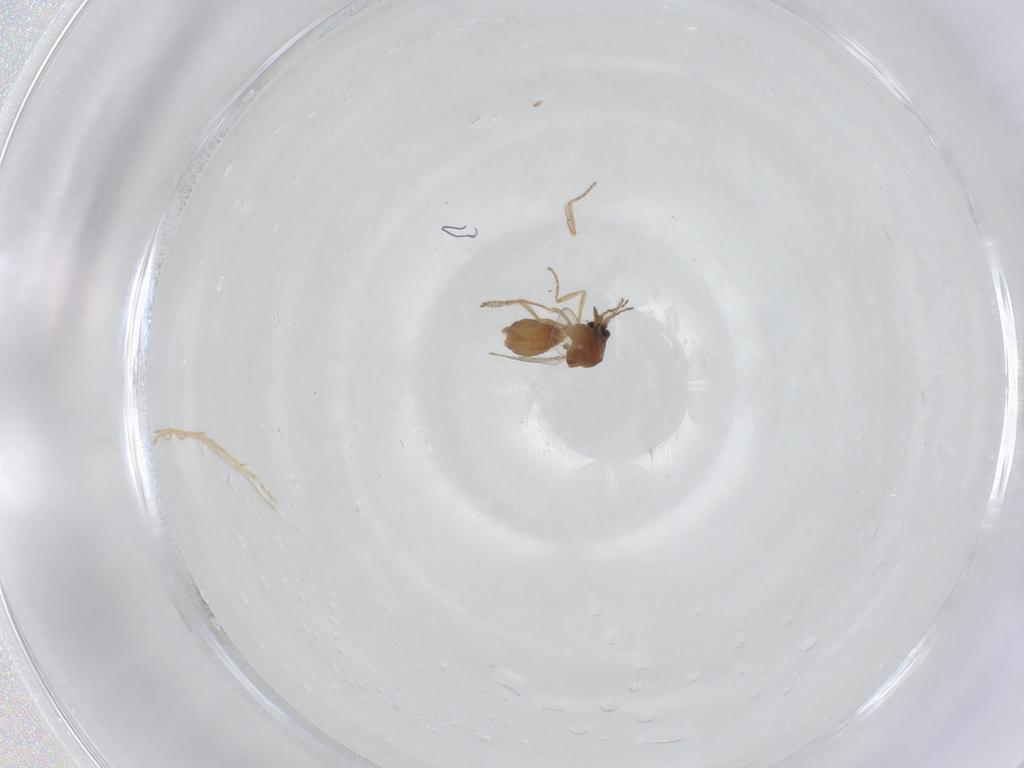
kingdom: Animalia
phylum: Arthropoda
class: Insecta
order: Diptera
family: Ceratopogonidae
